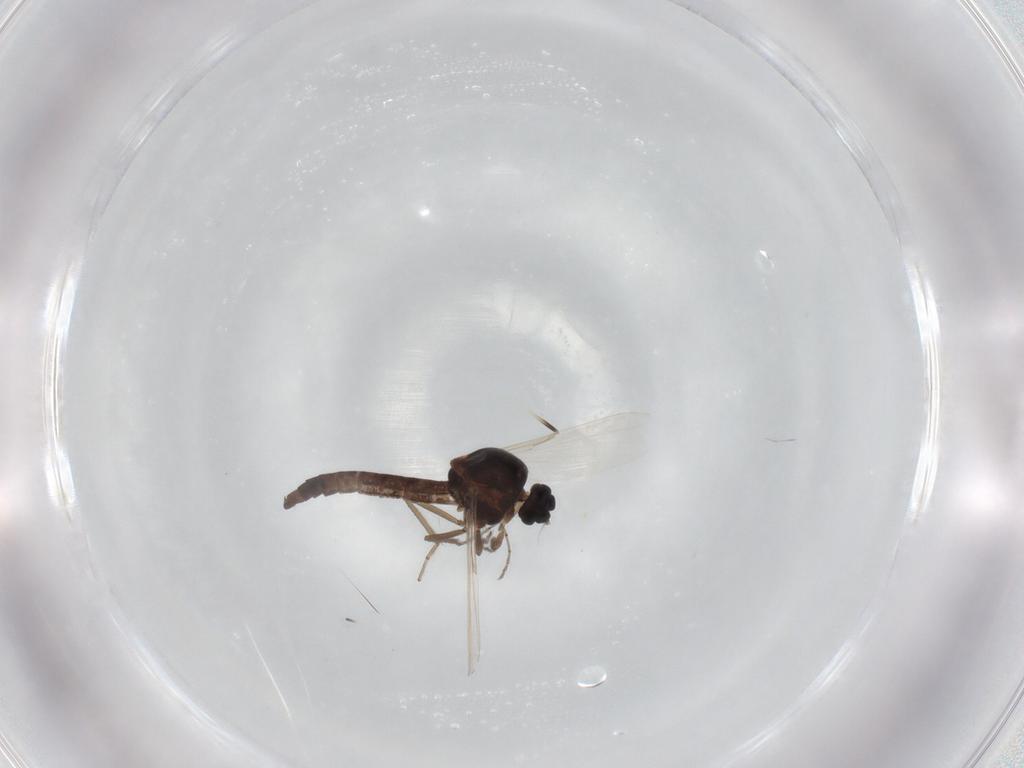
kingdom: Animalia
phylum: Arthropoda
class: Insecta
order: Diptera
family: Ceratopogonidae
